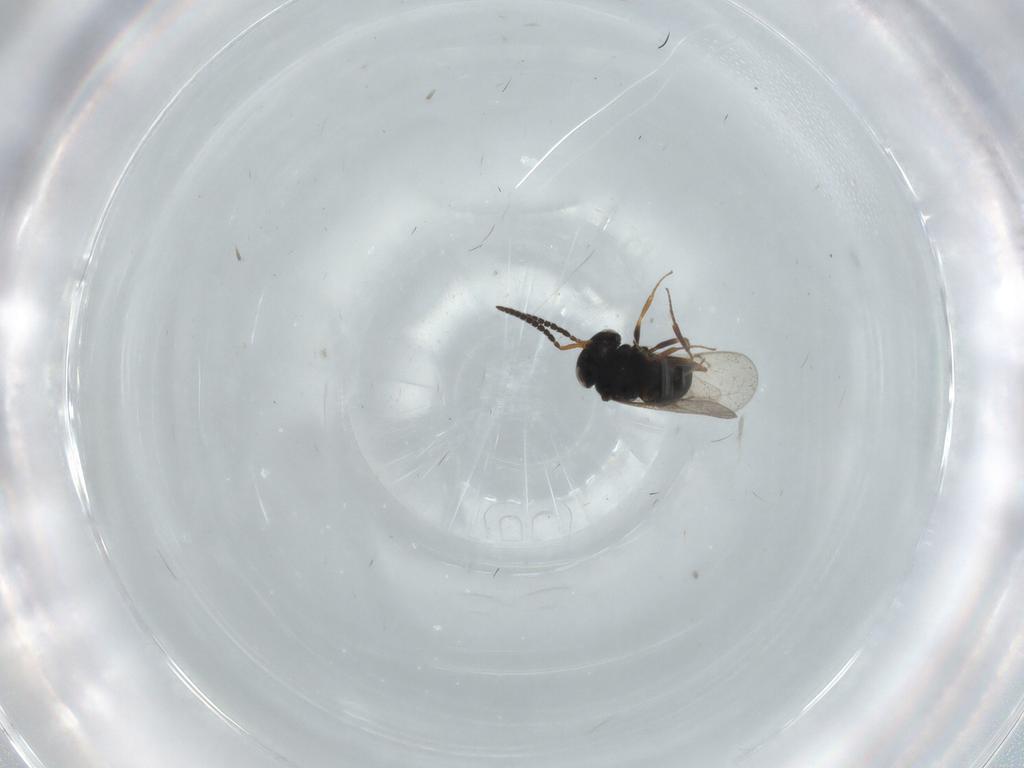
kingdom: Animalia
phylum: Arthropoda
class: Insecta
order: Hymenoptera
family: Scelionidae
